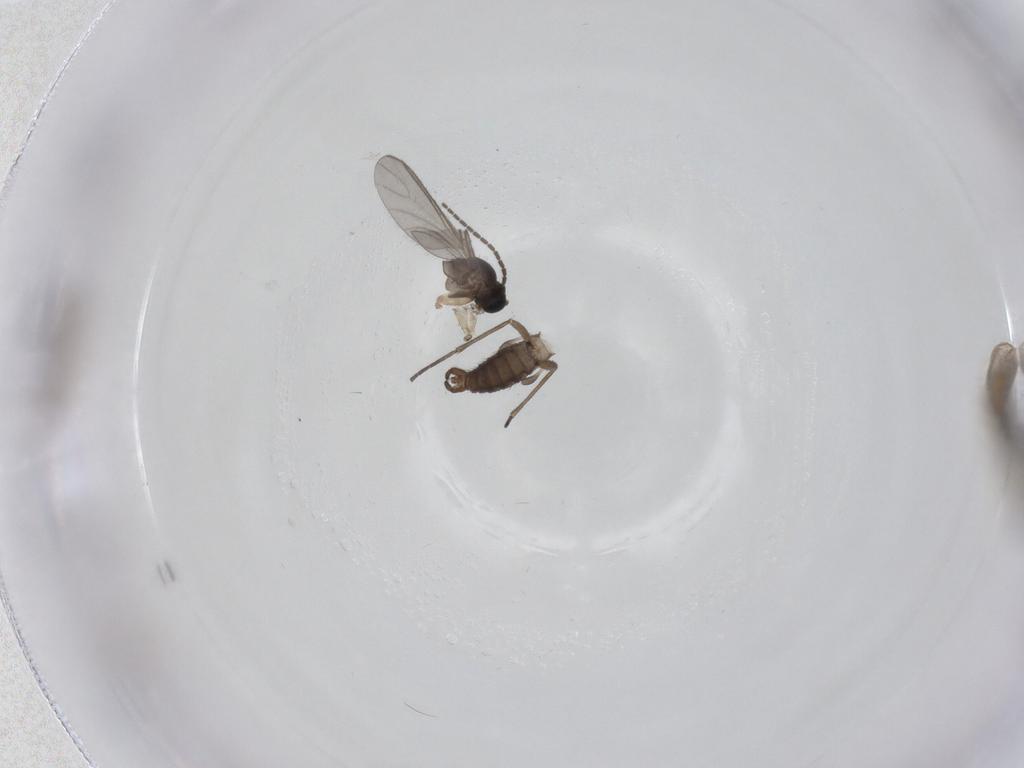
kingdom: Animalia
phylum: Arthropoda
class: Insecta
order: Diptera
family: Sciaridae
